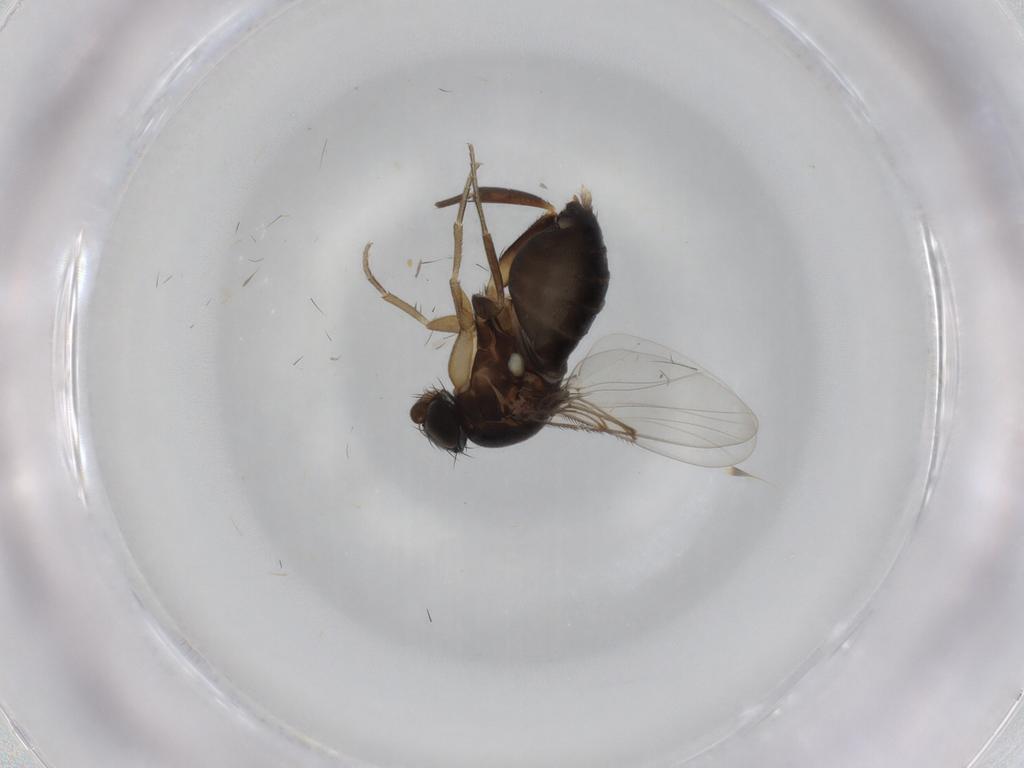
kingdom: Animalia
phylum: Arthropoda
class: Insecta
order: Diptera
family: Phoridae
